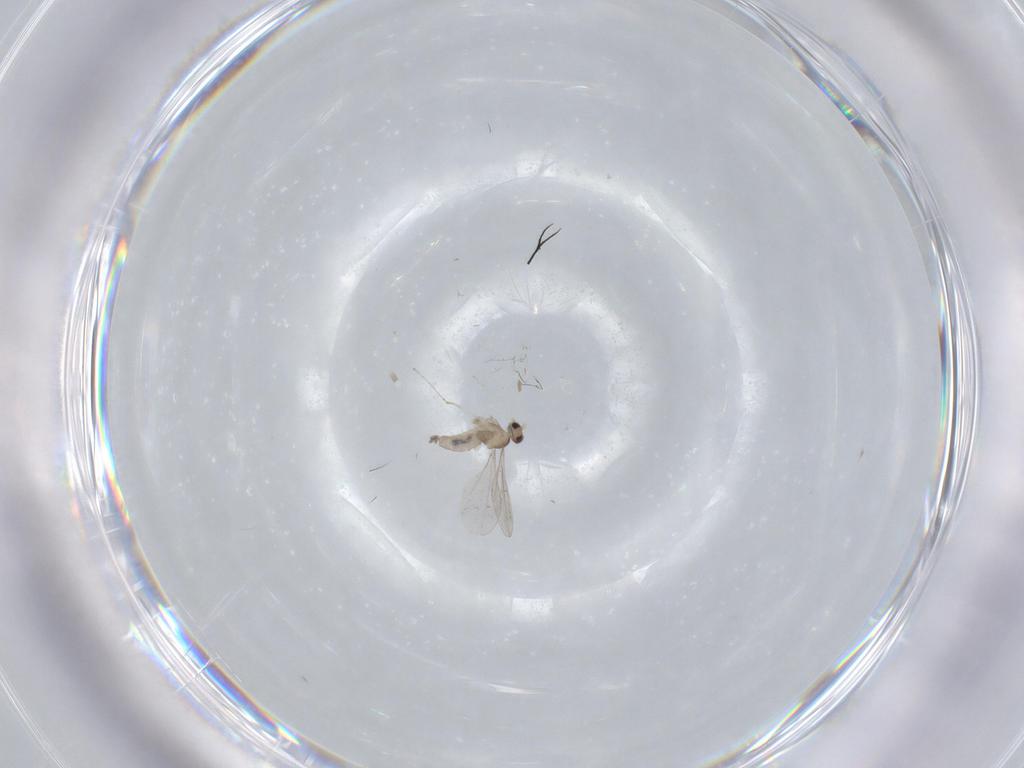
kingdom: Animalia
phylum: Arthropoda
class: Insecta
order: Diptera
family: Cecidomyiidae
